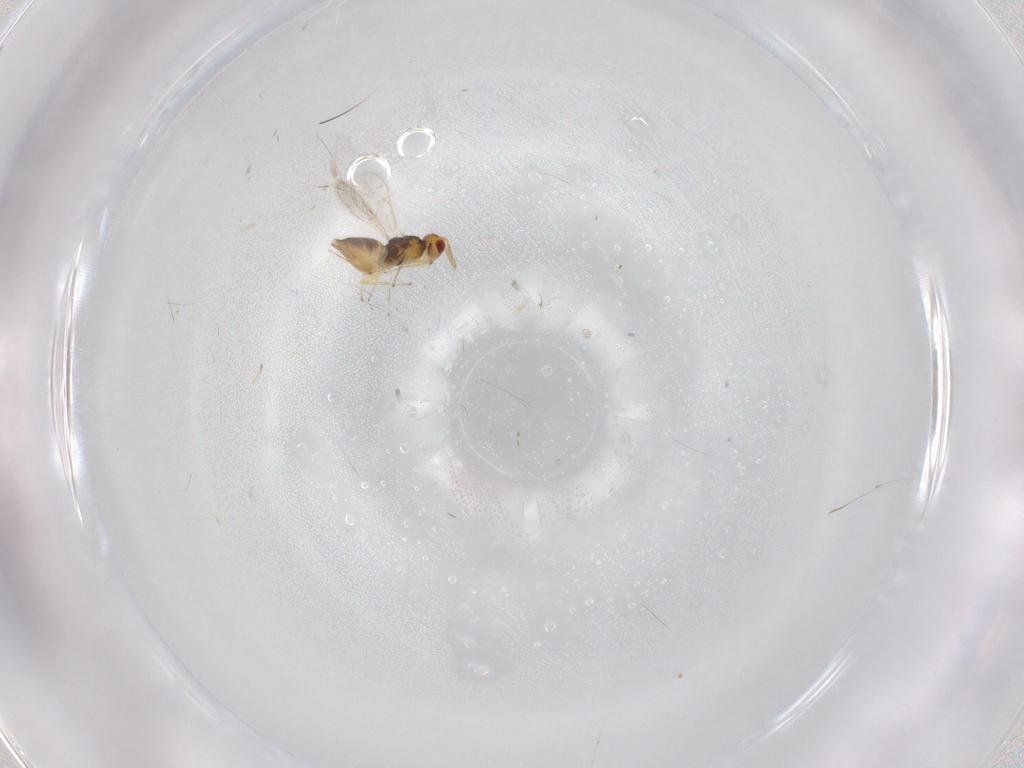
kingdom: Animalia
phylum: Arthropoda
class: Insecta
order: Hymenoptera
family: Eulophidae
